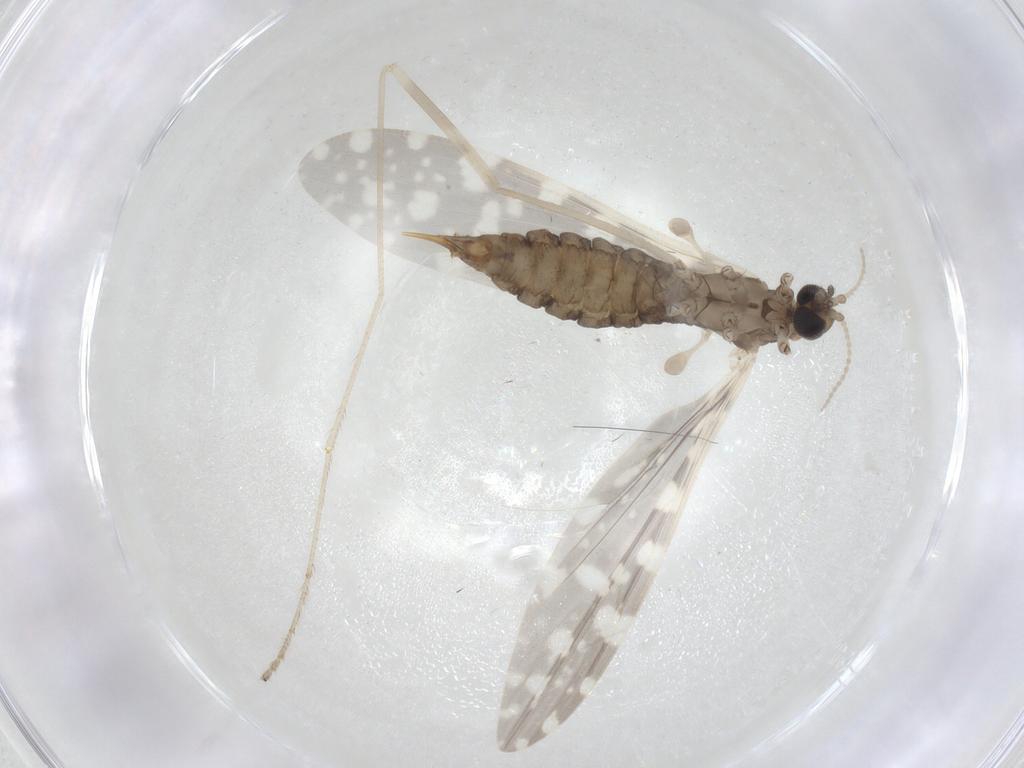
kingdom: Animalia
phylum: Arthropoda
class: Insecta
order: Diptera
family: Limoniidae
